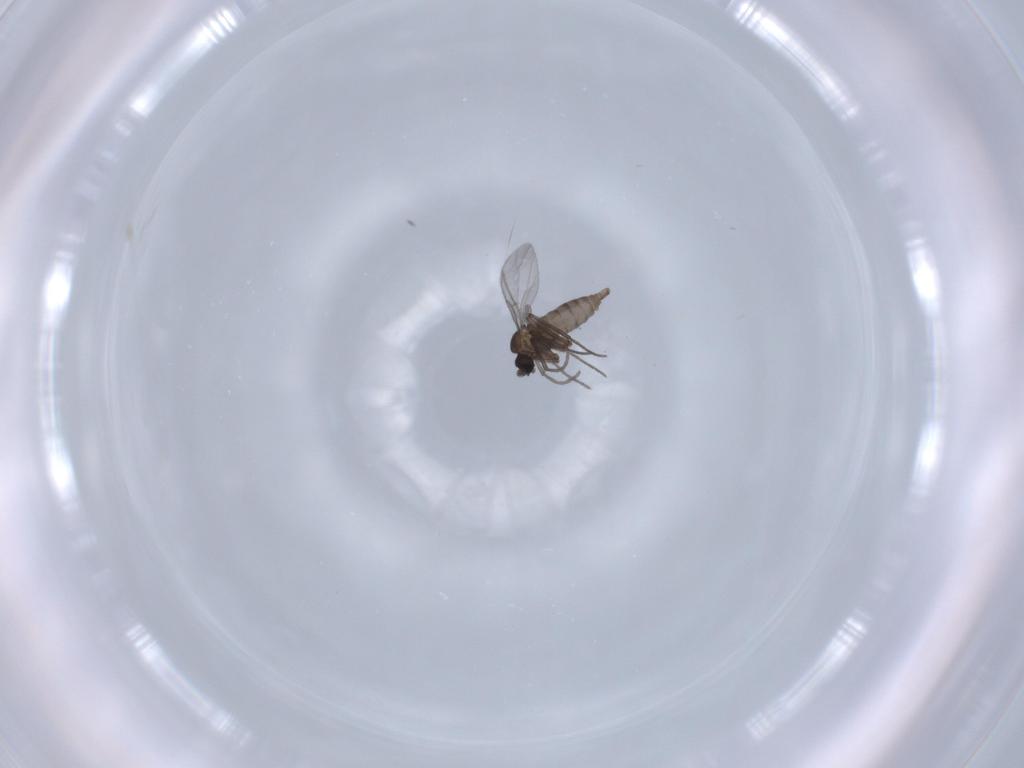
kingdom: Animalia
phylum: Arthropoda
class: Insecta
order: Diptera
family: Sciaridae
